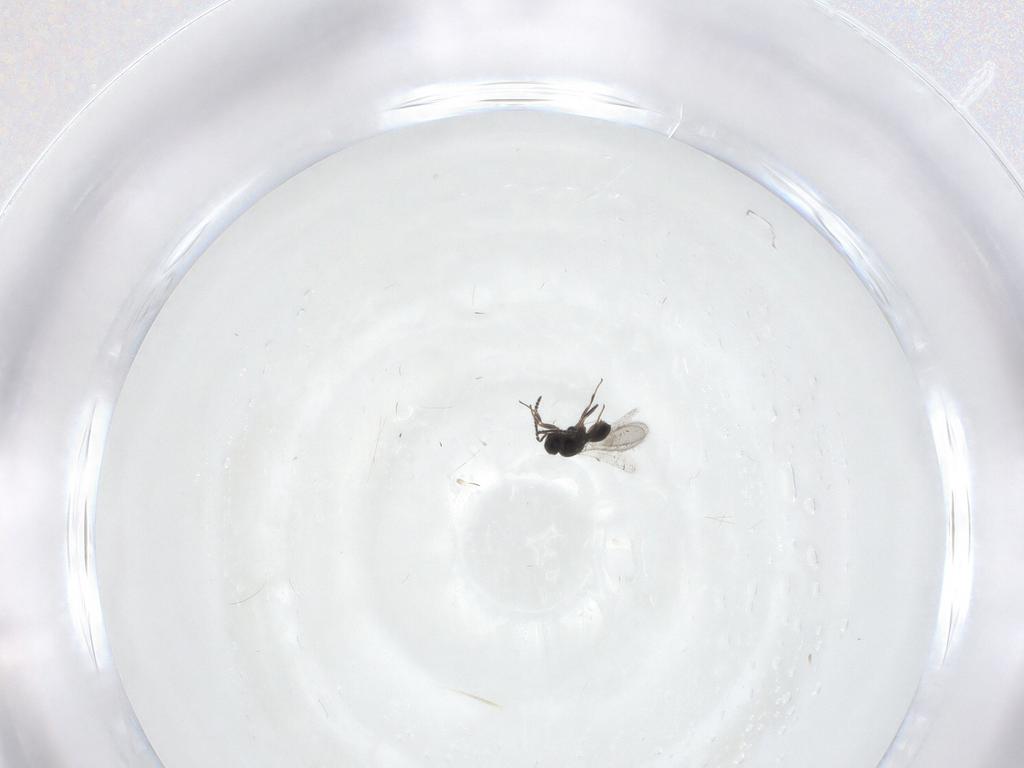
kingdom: Animalia
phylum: Arthropoda
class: Insecta
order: Hymenoptera
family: Scelionidae
